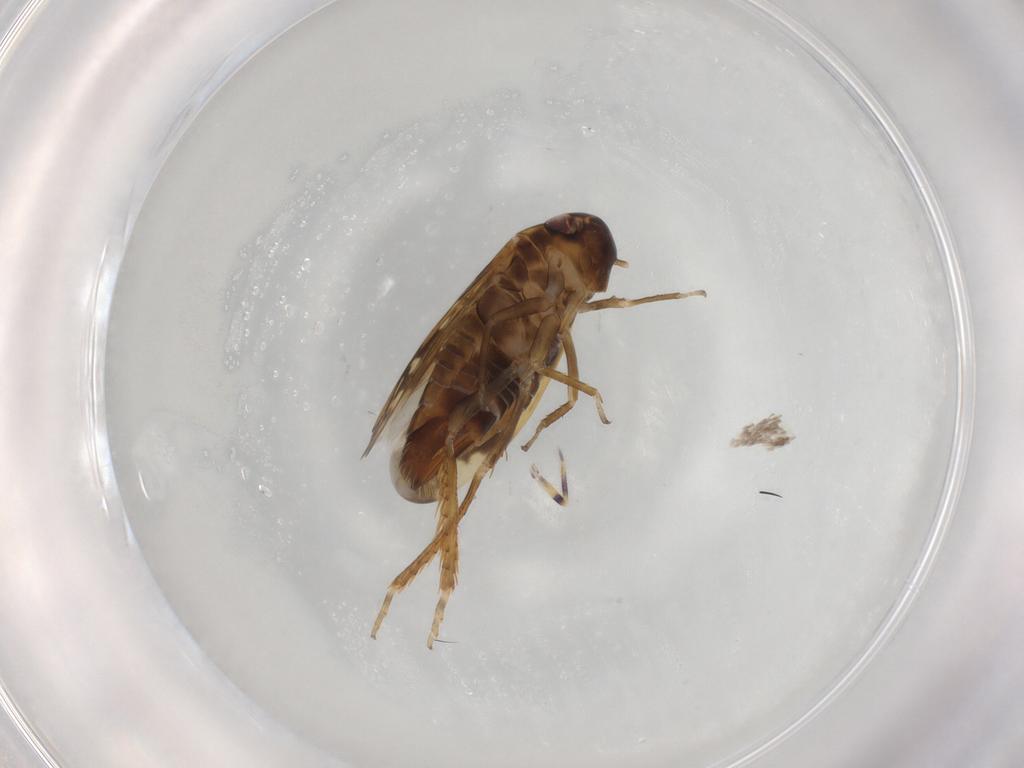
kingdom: Animalia
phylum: Arthropoda
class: Insecta
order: Hemiptera
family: Cicadellidae
